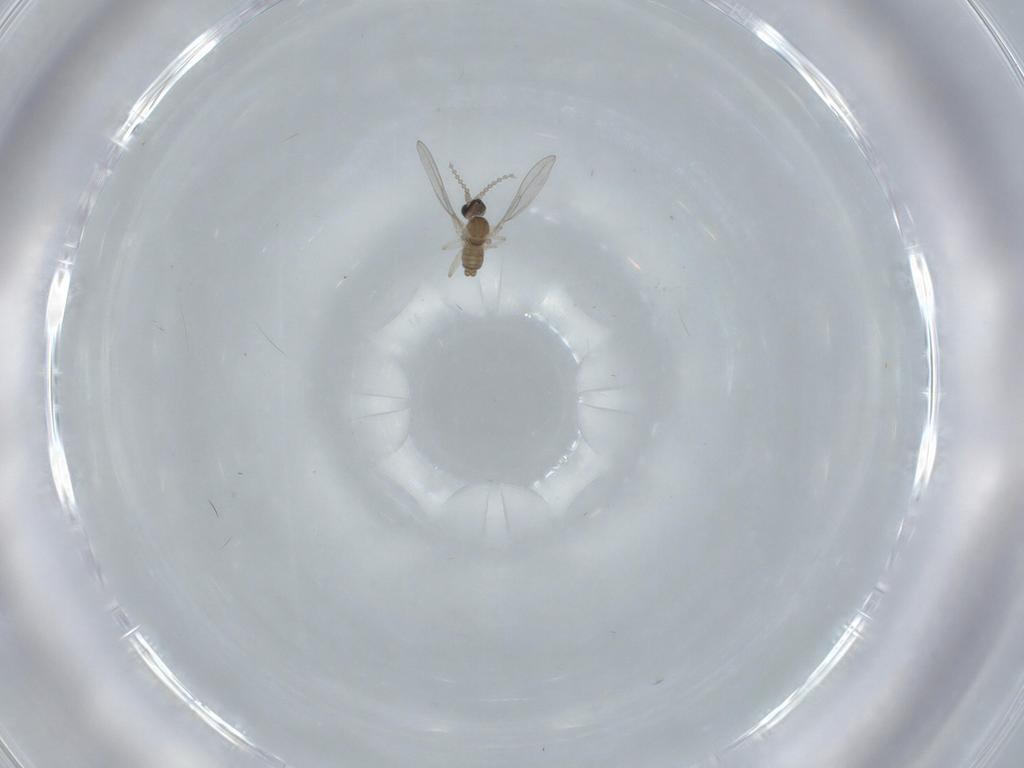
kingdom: Animalia
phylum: Arthropoda
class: Insecta
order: Diptera
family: Cecidomyiidae
